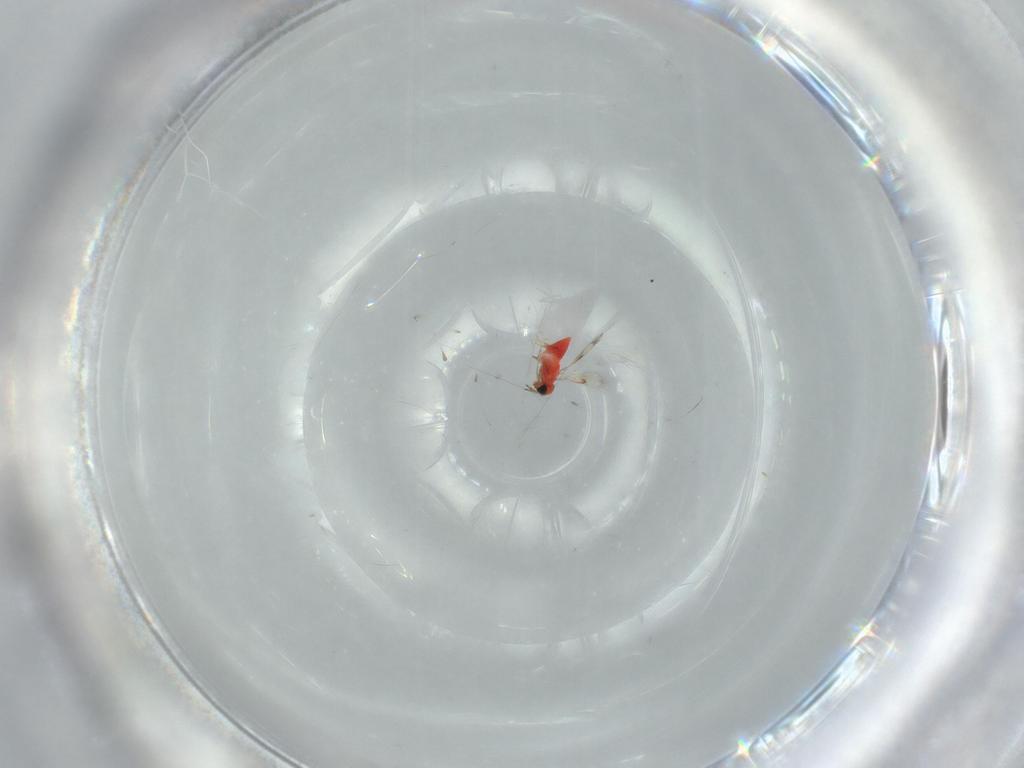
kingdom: Animalia
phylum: Arthropoda
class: Insecta
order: Hymenoptera
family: Trichogrammatidae
